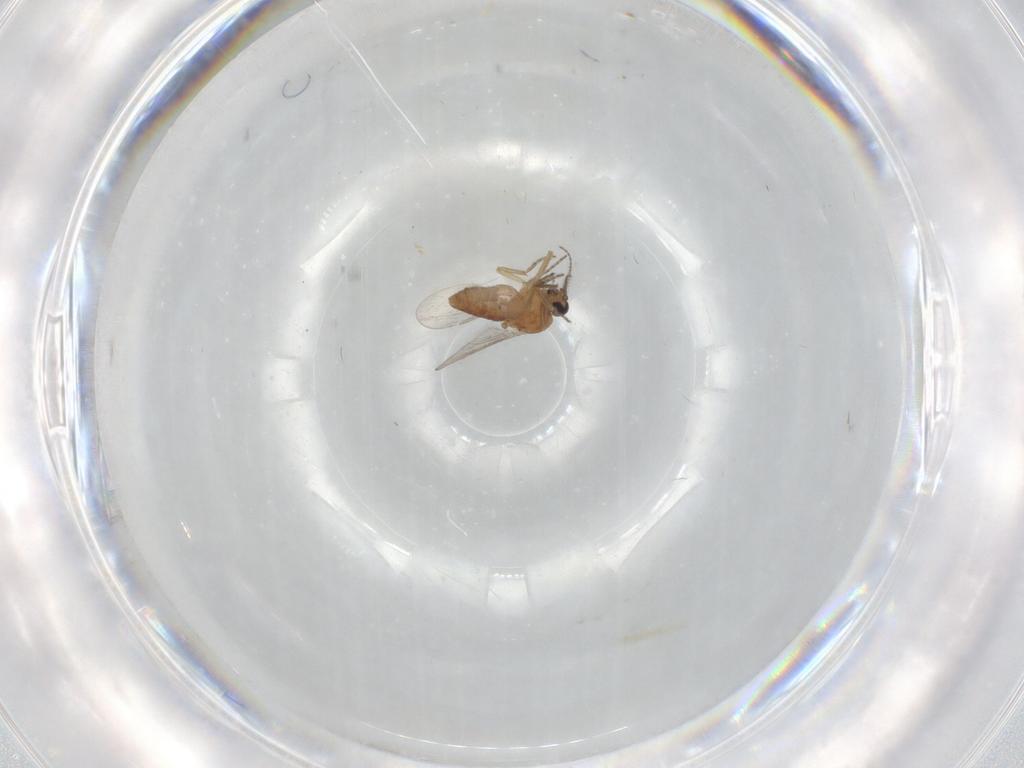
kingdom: Animalia
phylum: Arthropoda
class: Insecta
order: Diptera
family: Ceratopogonidae
